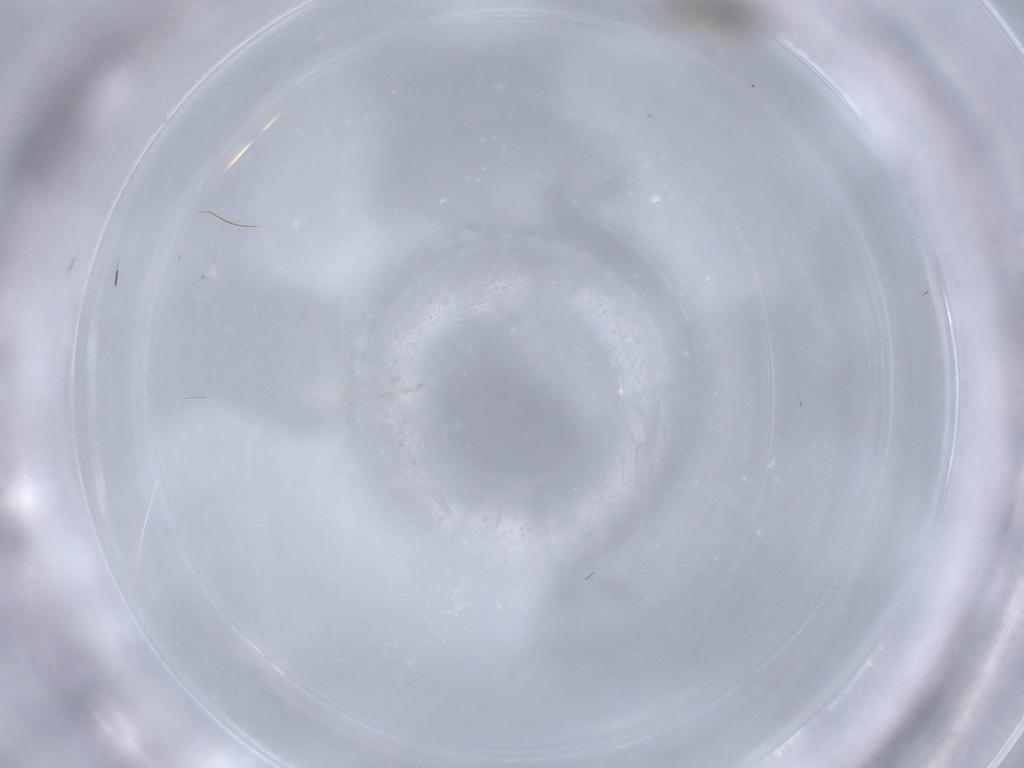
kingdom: Animalia
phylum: Arthropoda
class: Insecta
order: Diptera
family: Cecidomyiidae
